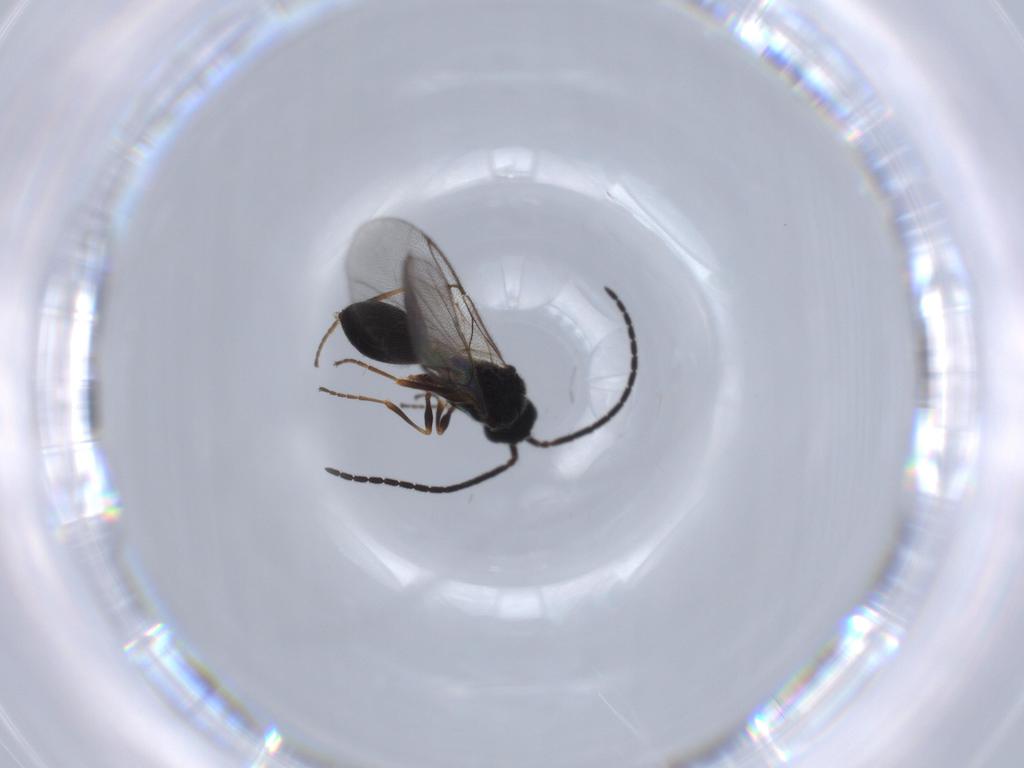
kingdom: Animalia
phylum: Arthropoda
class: Insecta
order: Hymenoptera
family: Diapriidae
